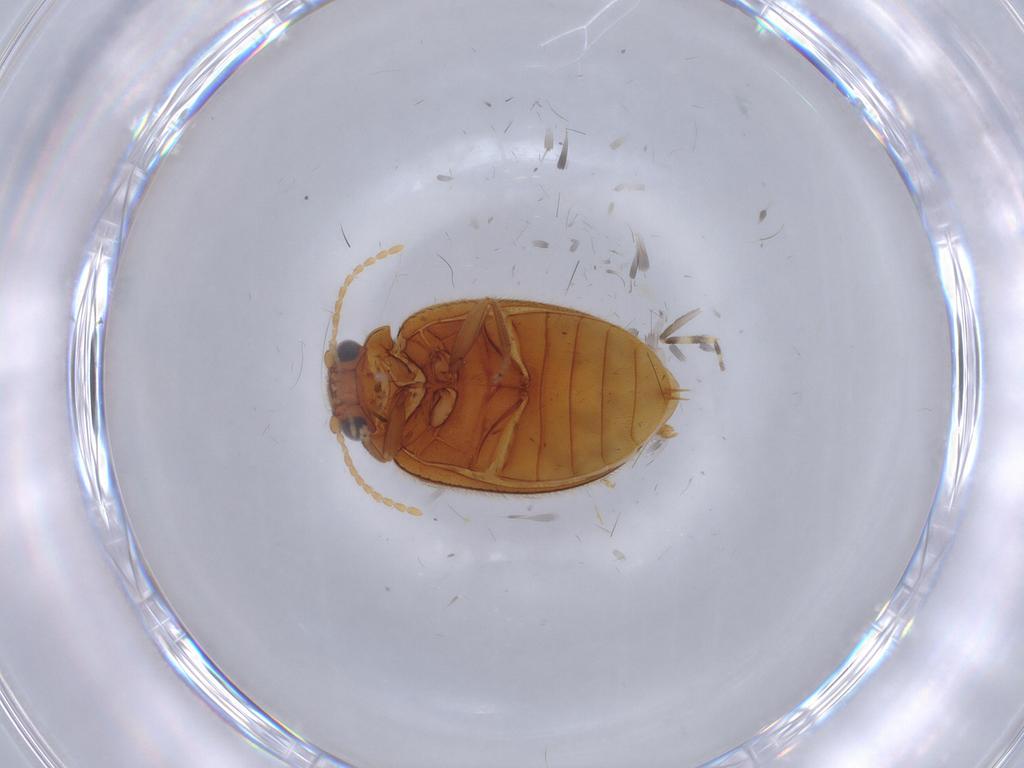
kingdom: Animalia
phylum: Arthropoda
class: Insecta
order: Coleoptera
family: Scirtidae
